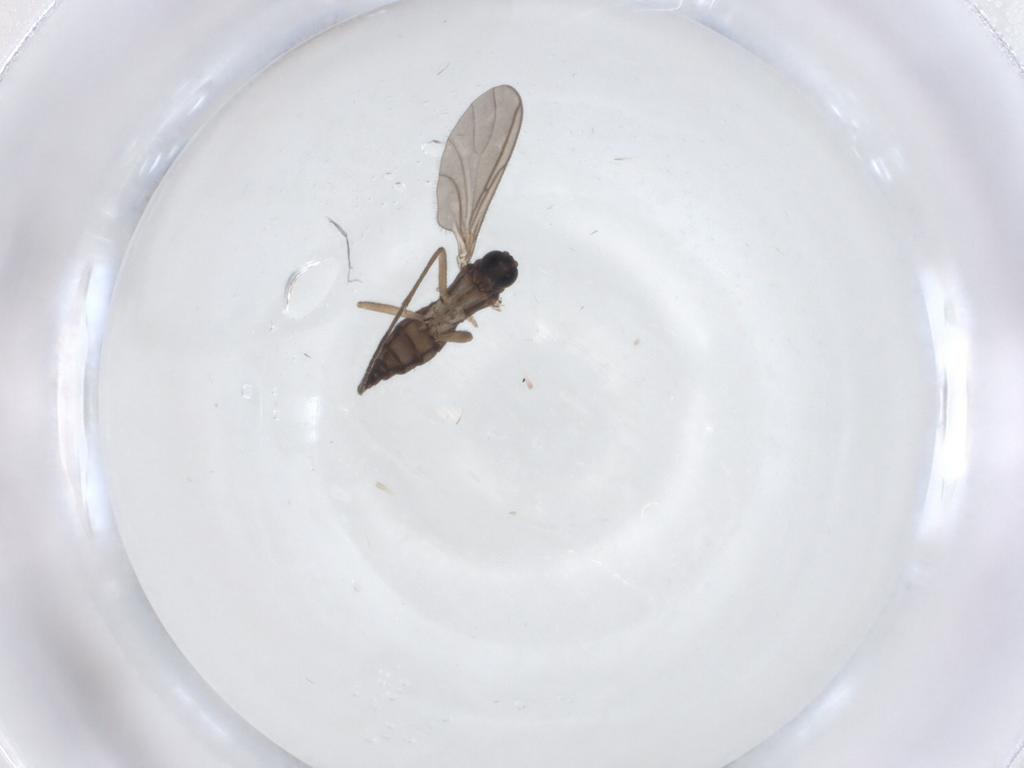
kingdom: Animalia
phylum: Arthropoda
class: Insecta
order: Diptera
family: Sciaridae
